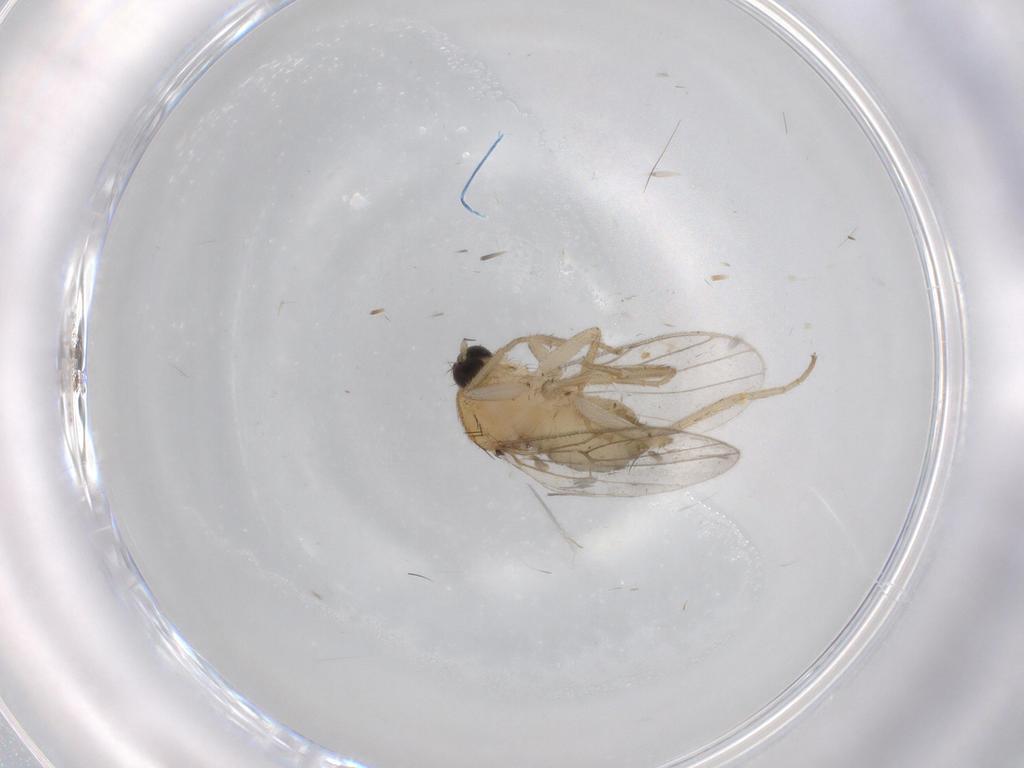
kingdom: Animalia
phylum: Arthropoda
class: Insecta
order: Diptera
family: Hybotidae
